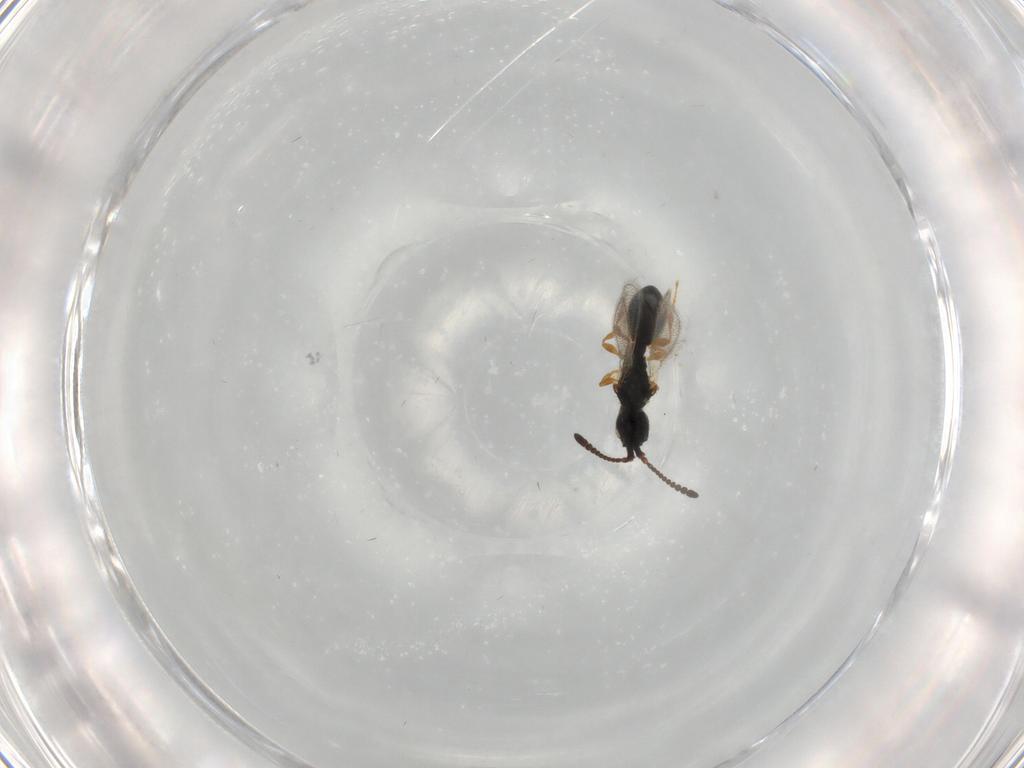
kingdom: Animalia
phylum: Arthropoda
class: Insecta
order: Hymenoptera
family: Diapriidae
